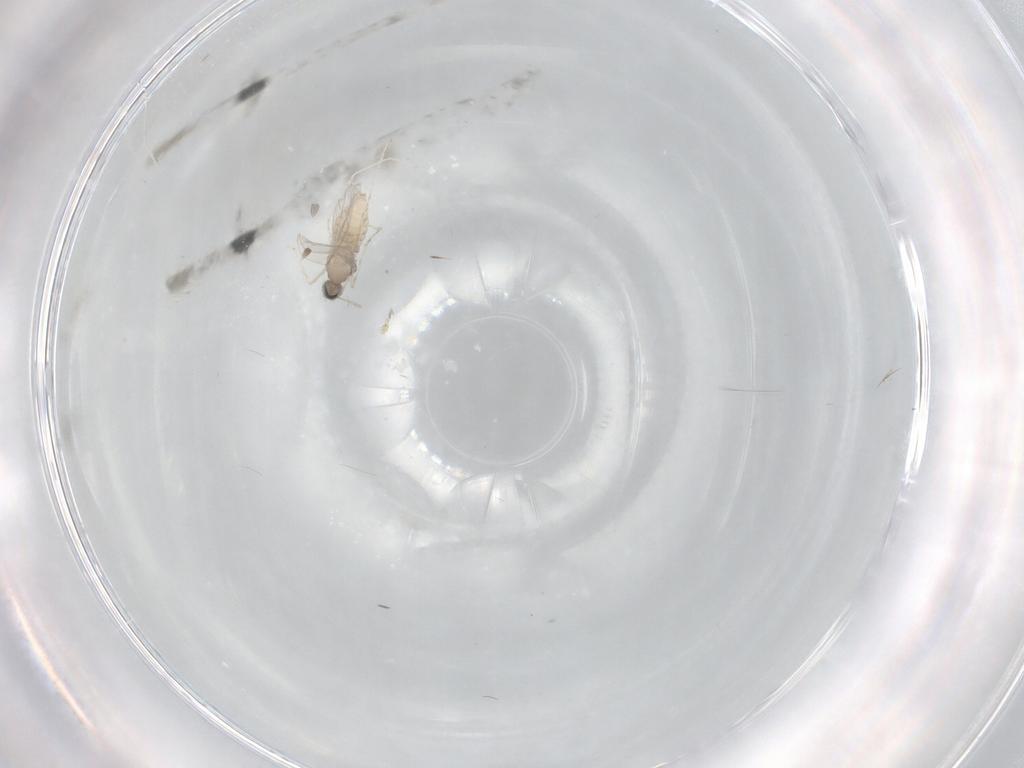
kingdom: Animalia
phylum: Arthropoda
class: Insecta
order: Diptera
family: Cecidomyiidae
